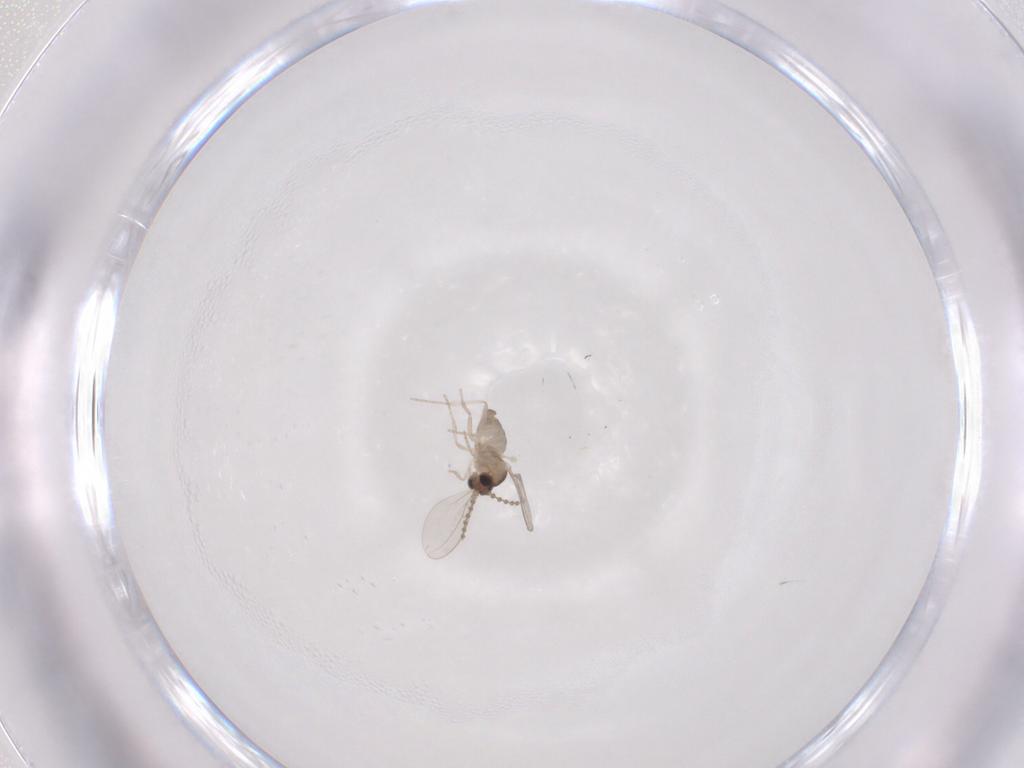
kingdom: Animalia
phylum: Arthropoda
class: Insecta
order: Diptera
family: Cecidomyiidae
